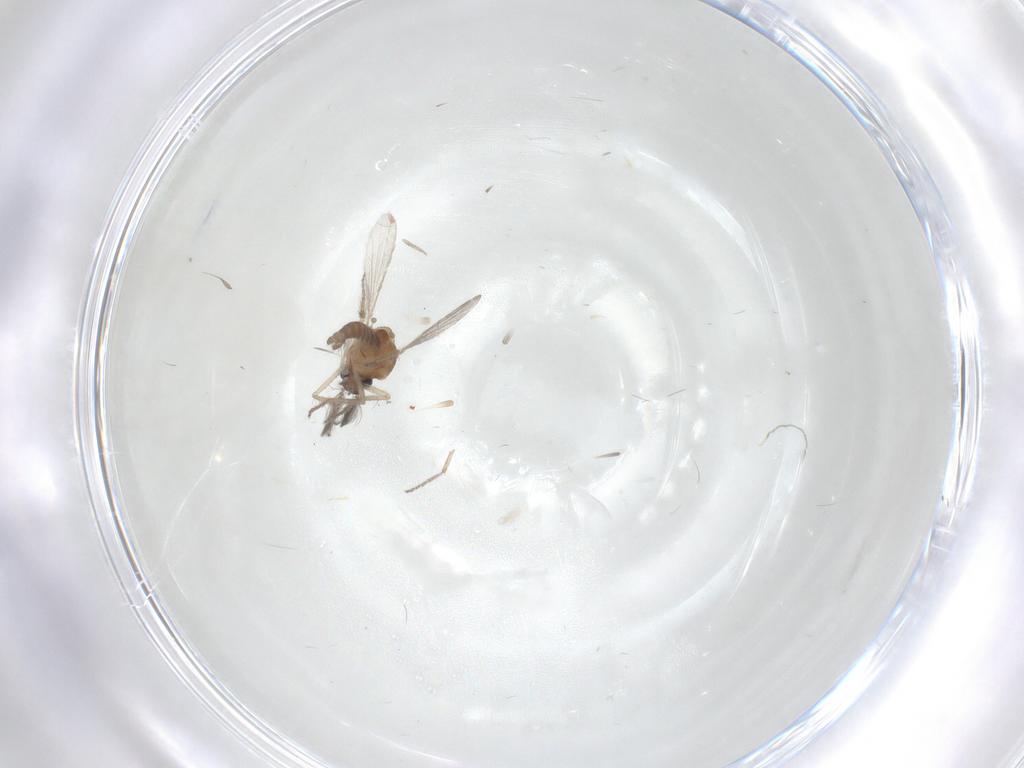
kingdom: Animalia
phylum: Arthropoda
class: Insecta
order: Diptera
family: Ceratopogonidae
